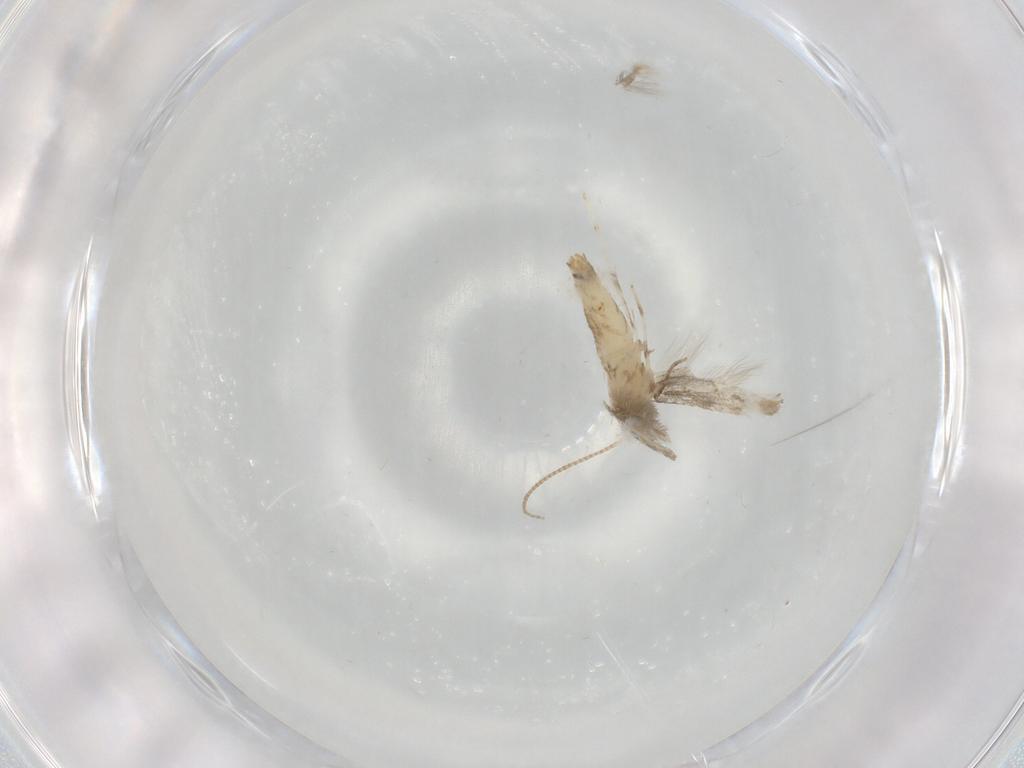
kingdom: Animalia
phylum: Arthropoda
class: Insecta
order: Lepidoptera
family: Gracillariidae
